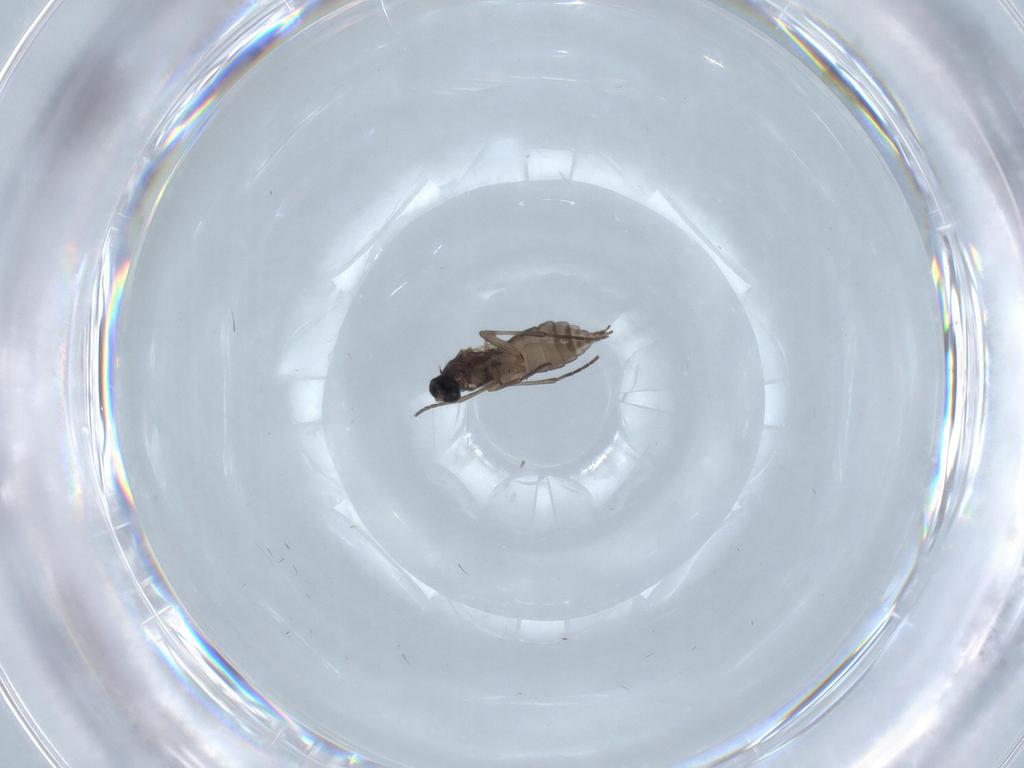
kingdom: Animalia
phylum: Arthropoda
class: Insecta
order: Diptera
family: Sciaridae
